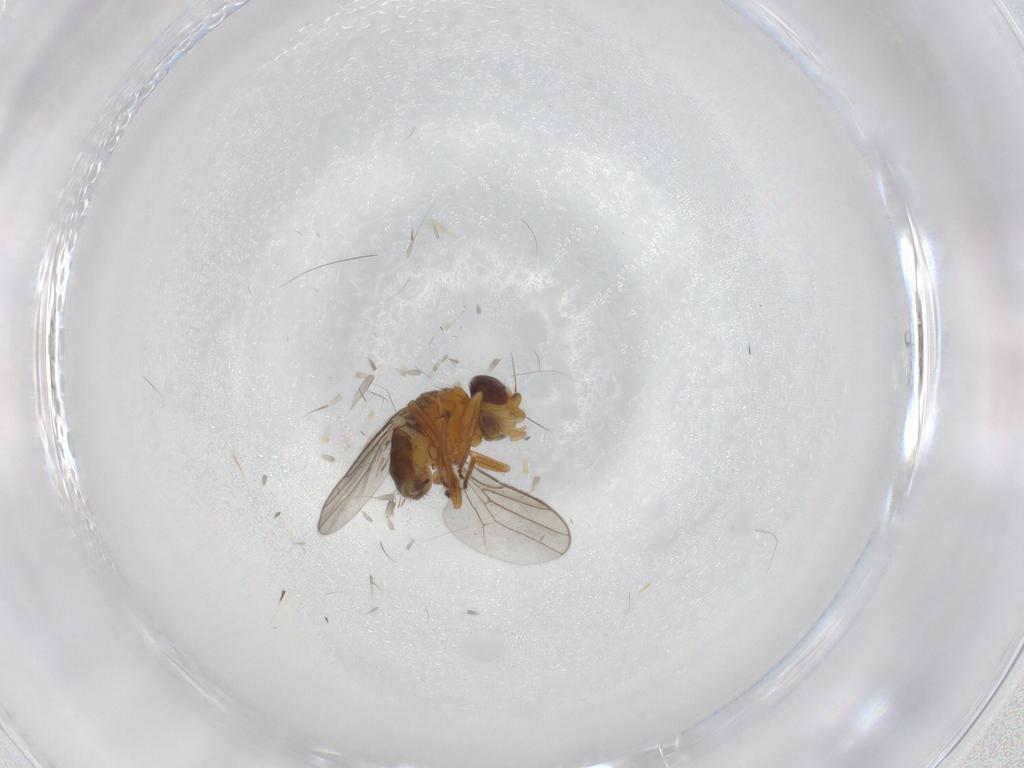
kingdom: Animalia
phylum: Arthropoda
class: Insecta
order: Diptera
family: Chloropidae
